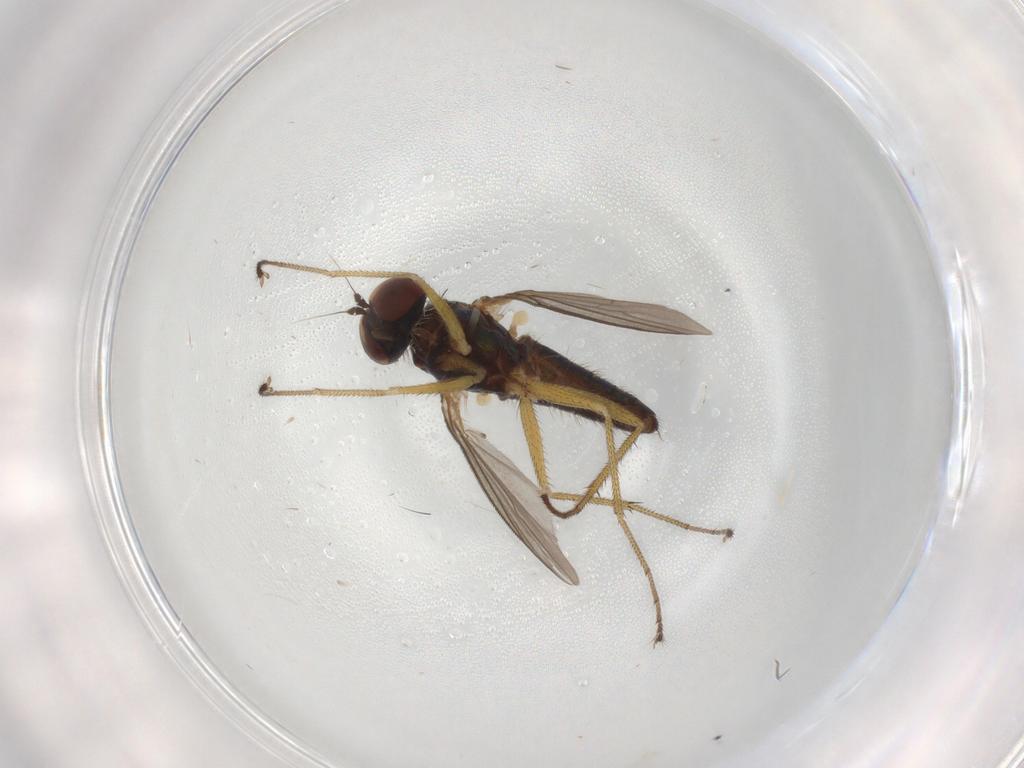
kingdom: Animalia
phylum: Arthropoda
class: Insecta
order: Diptera
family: Dolichopodidae
